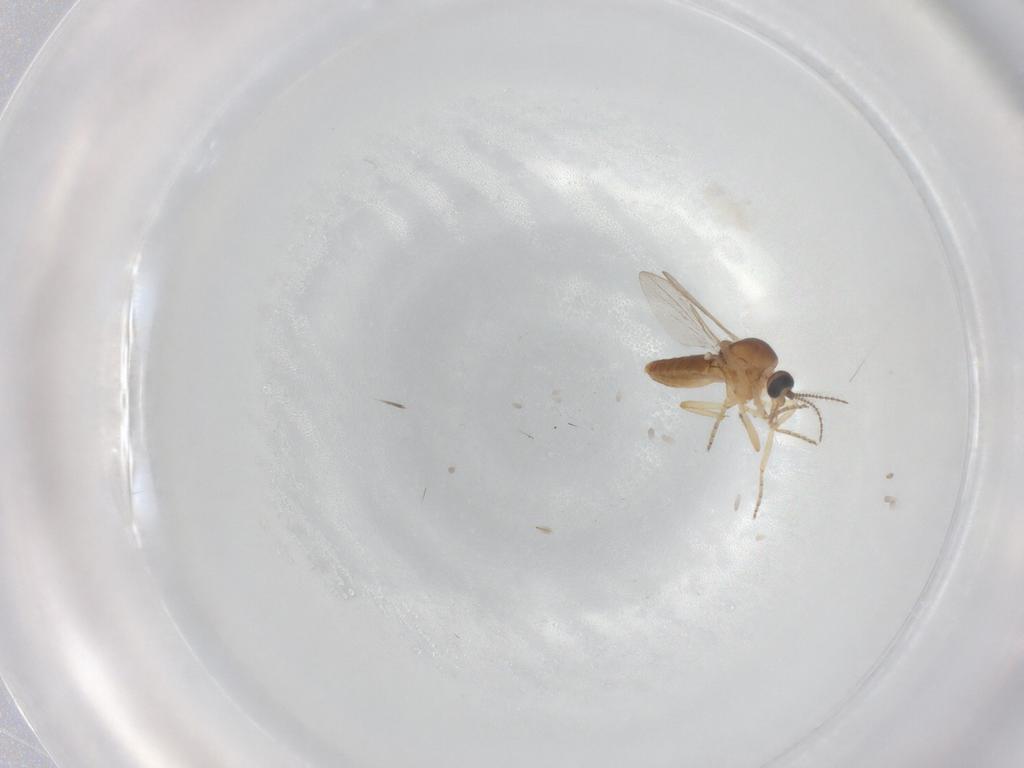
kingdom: Animalia
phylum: Arthropoda
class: Insecta
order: Diptera
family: Ceratopogonidae
